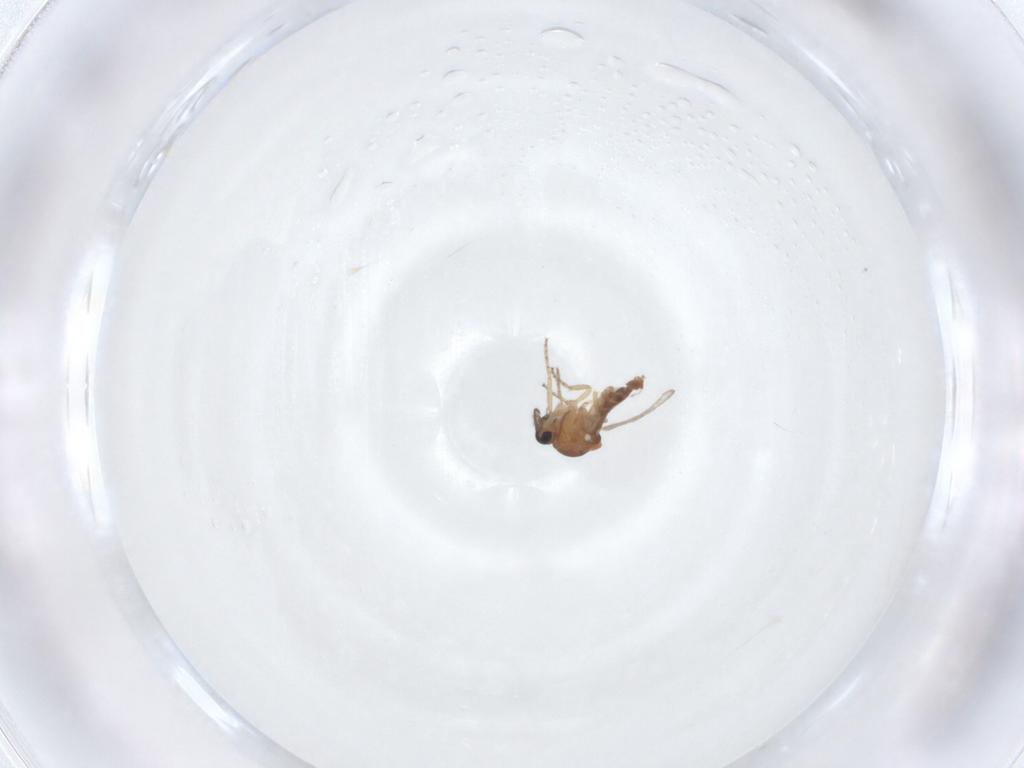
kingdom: Animalia
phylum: Arthropoda
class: Insecta
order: Diptera
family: Ceratopogonidae
